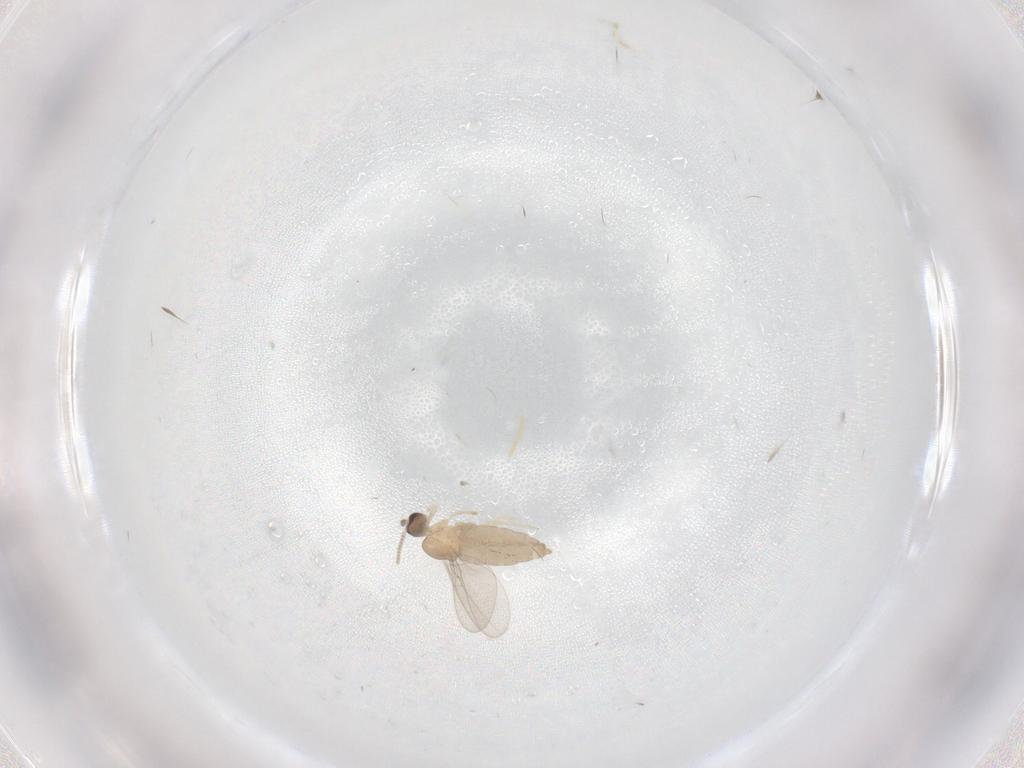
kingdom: Animalia
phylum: Arthropoda
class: Insecta
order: Diptera
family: Cecidomyiidae
